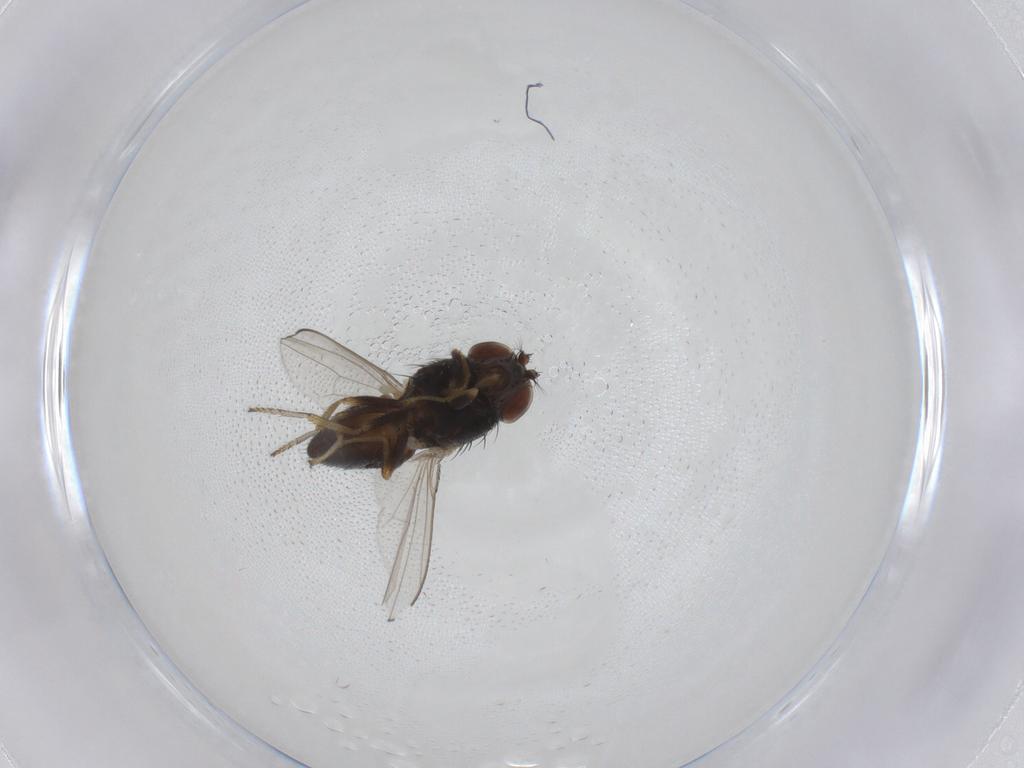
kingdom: Animalia
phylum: Arthropoda
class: Insecta
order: Diptera
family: Ephydridae
